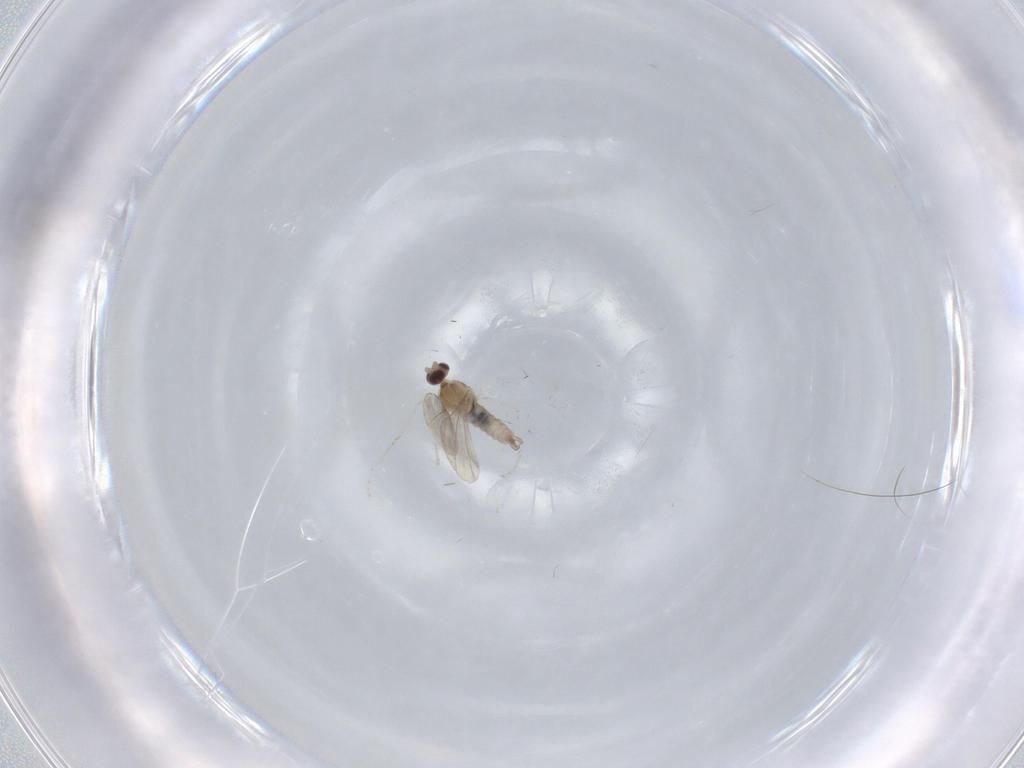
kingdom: Animalia
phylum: Arthropoda
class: Insecta
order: Diptera
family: Cecidomyiidae
